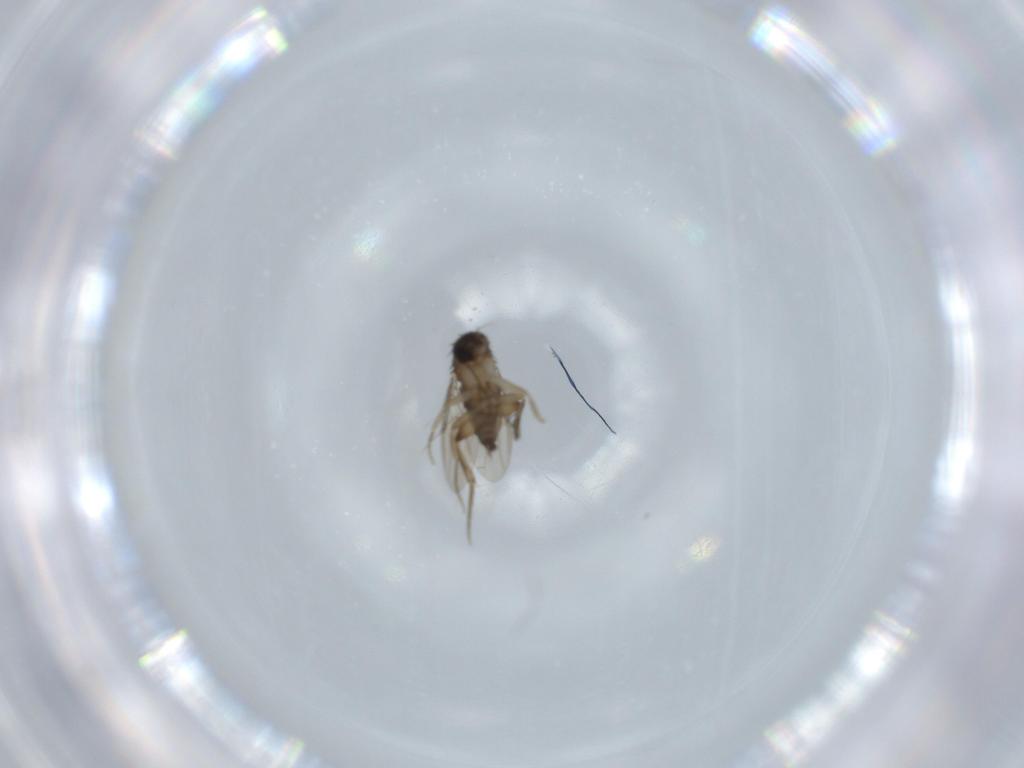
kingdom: Animalia
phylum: Arthropoda
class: Insecta
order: Diptera
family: Phoridae
